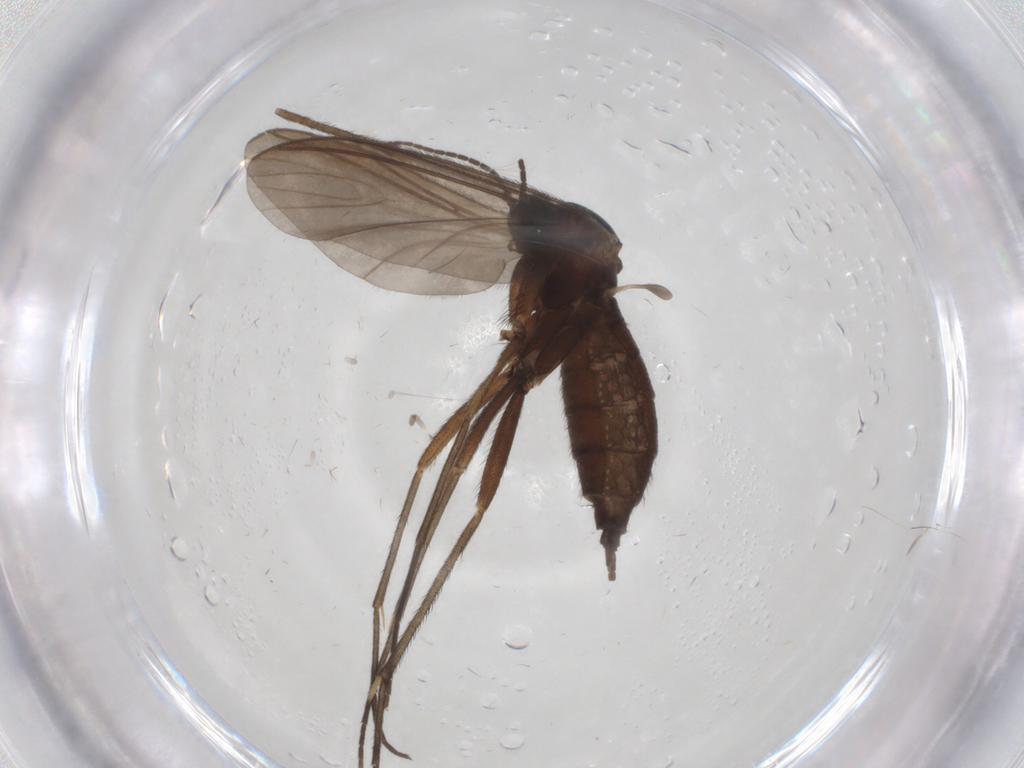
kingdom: Animalia
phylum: Arthropoda
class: Insecta
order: Diptera
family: Sciaridae
